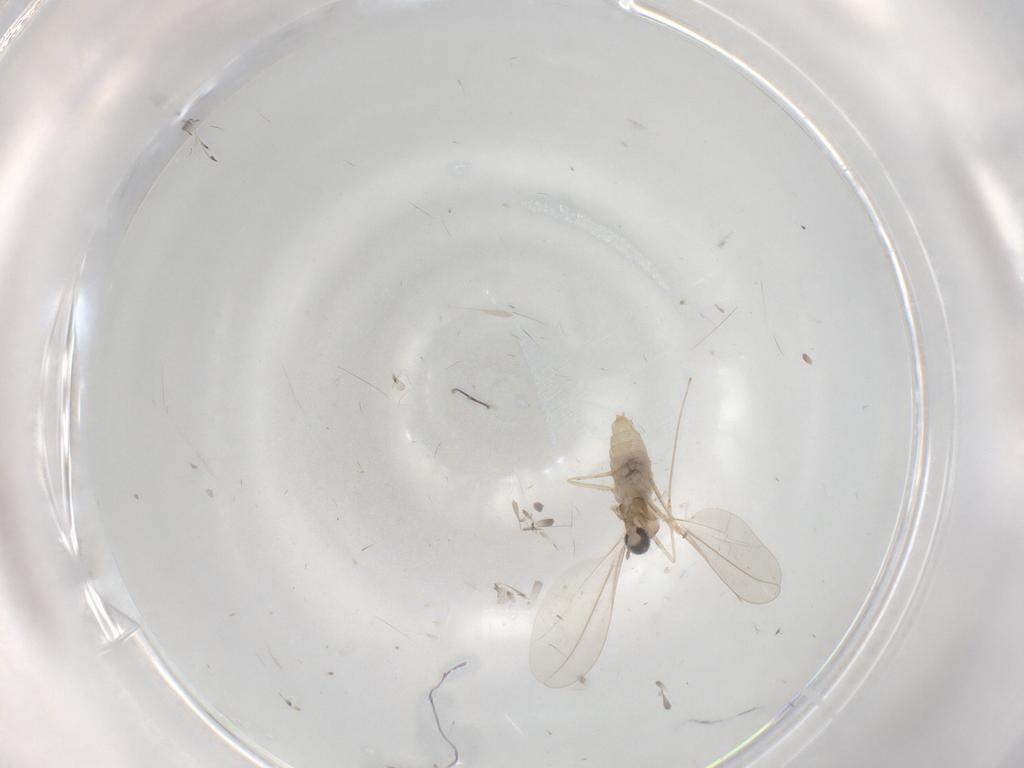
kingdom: Animalia
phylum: Arthropoda
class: Insecta
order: Diptera
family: Cecidomyiidae
